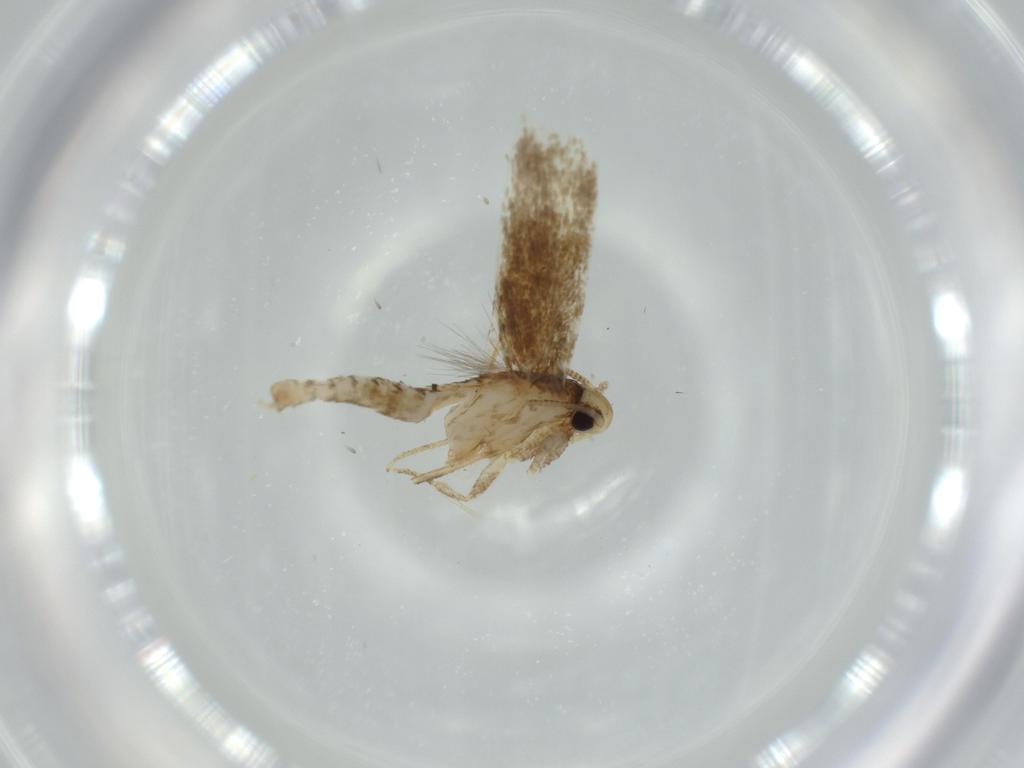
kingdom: Animalia
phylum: Arthropoda
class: Insecta
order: Lepidoptera
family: Tineidae
